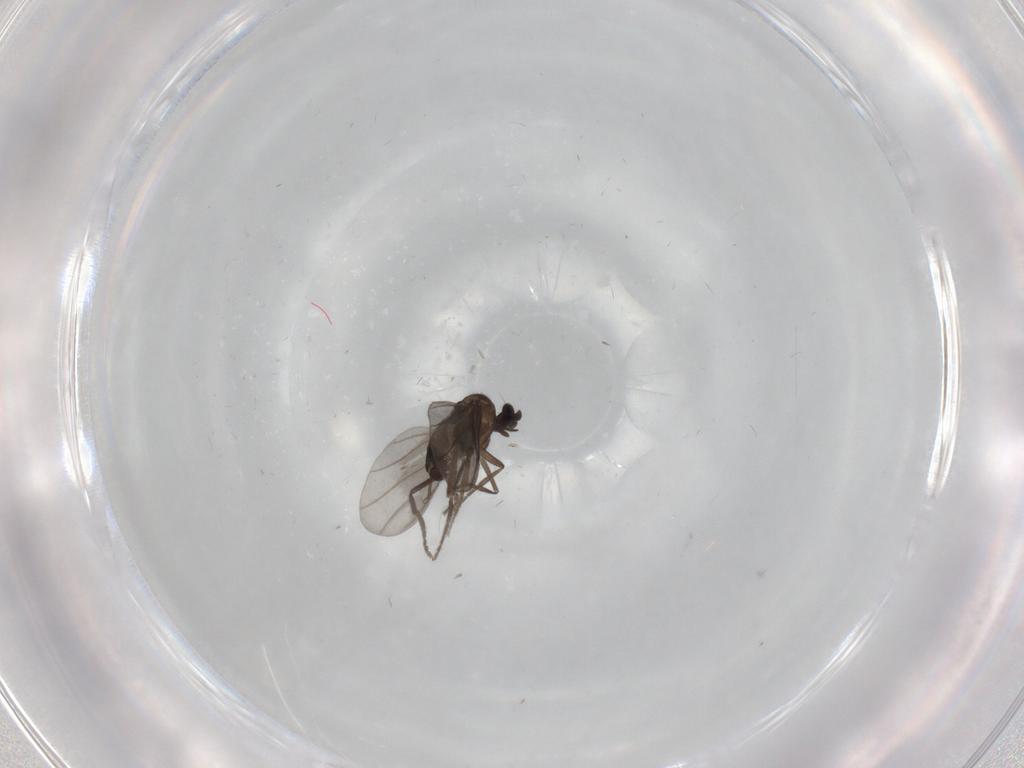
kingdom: Animalia
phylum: Arthropoda
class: Insecta
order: Diptera
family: Phoridae
